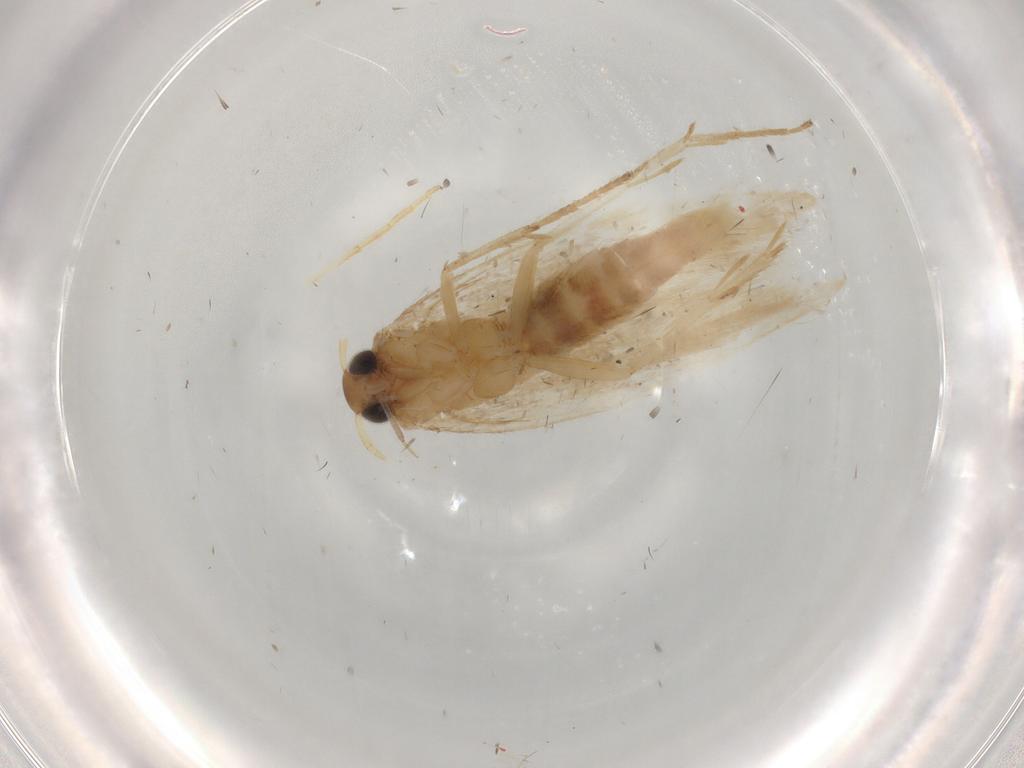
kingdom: Animalia
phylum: Arthropoda
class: Insecta
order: Lepidoptera
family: Gelechiidae
